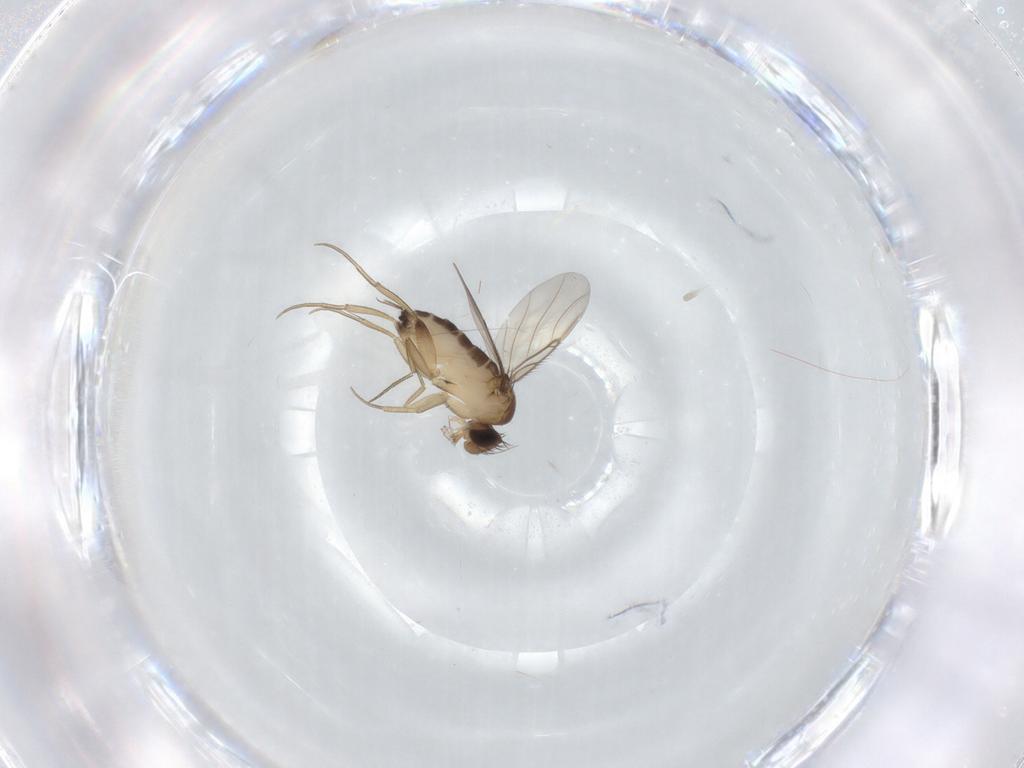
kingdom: Animalia
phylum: Arthropoda
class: Insecta
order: Diptera
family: Phoridae
